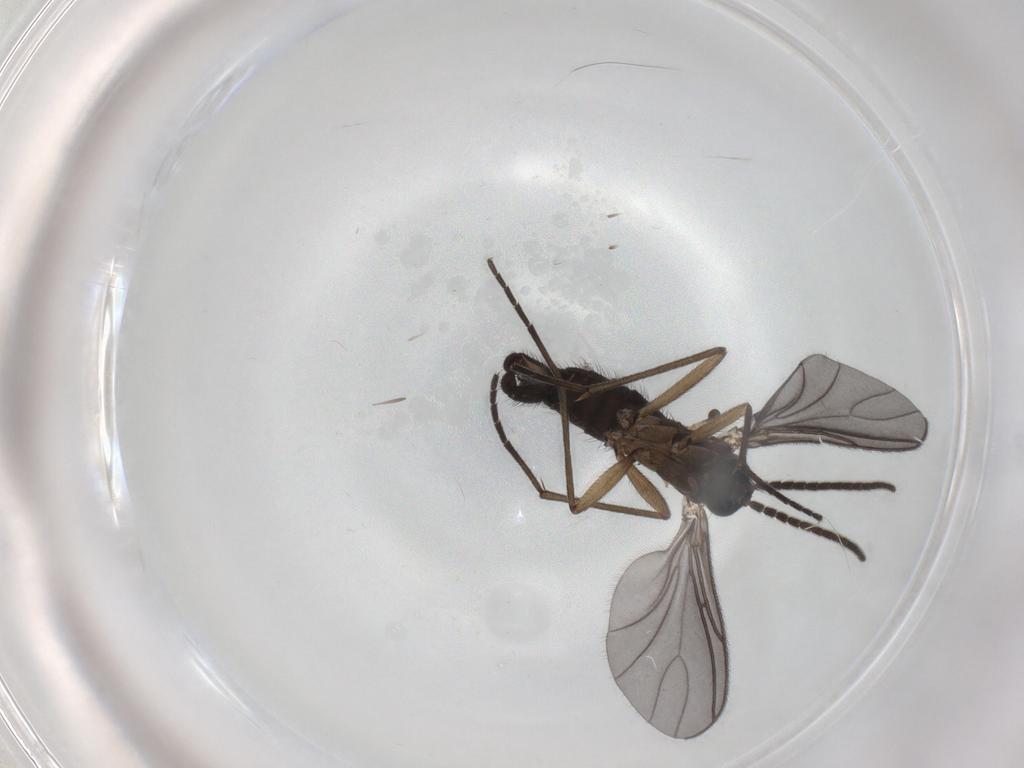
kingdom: Animalia
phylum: Arthropoda
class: Insecta
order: Diptera
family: Sciaridae
